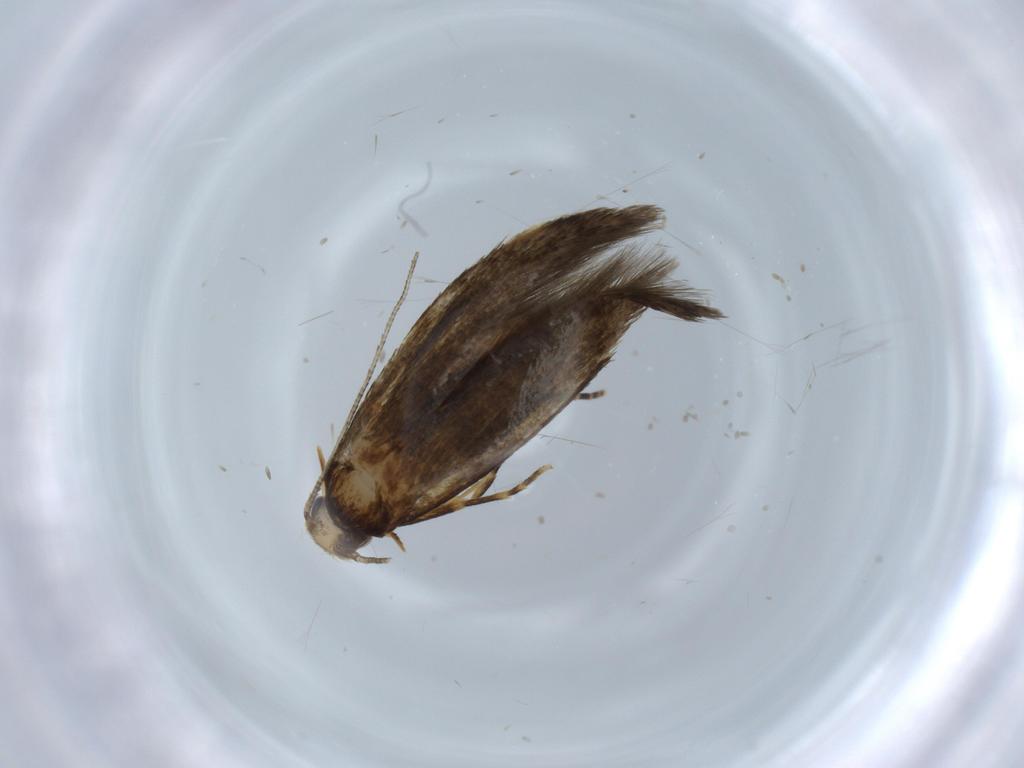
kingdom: Animalia
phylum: Arthropoda
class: Insecta
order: Lepidoptera
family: Tineidae
